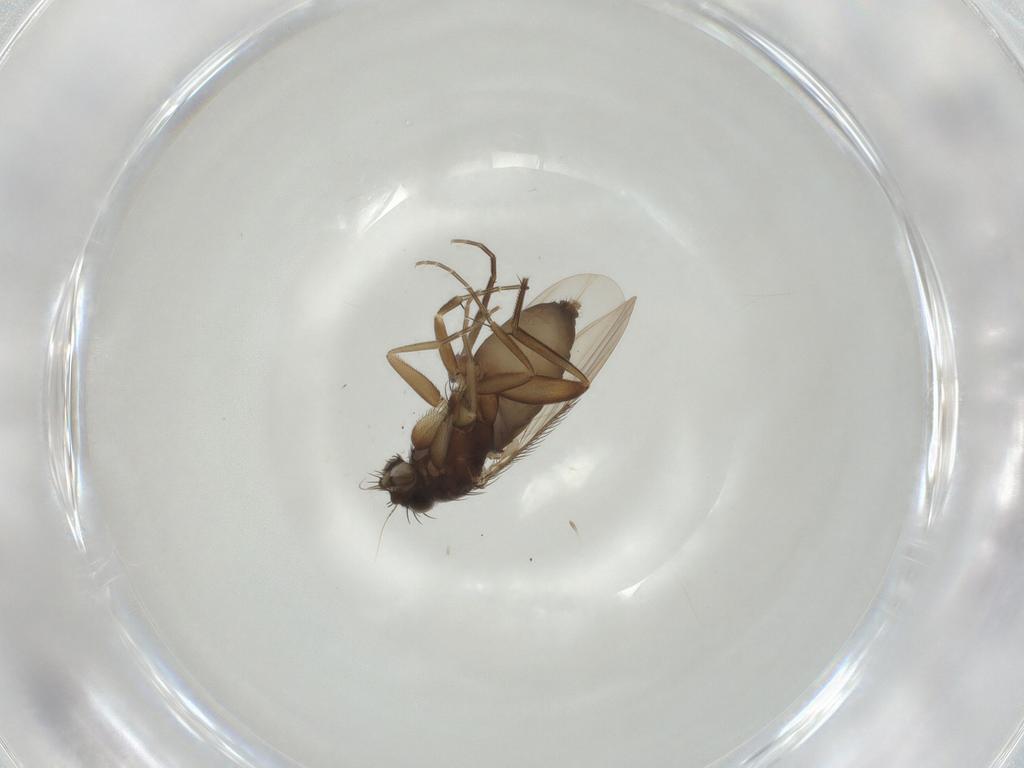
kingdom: Animalia
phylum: Arthropoda
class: Insecta
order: Diptera
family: Phoridae
